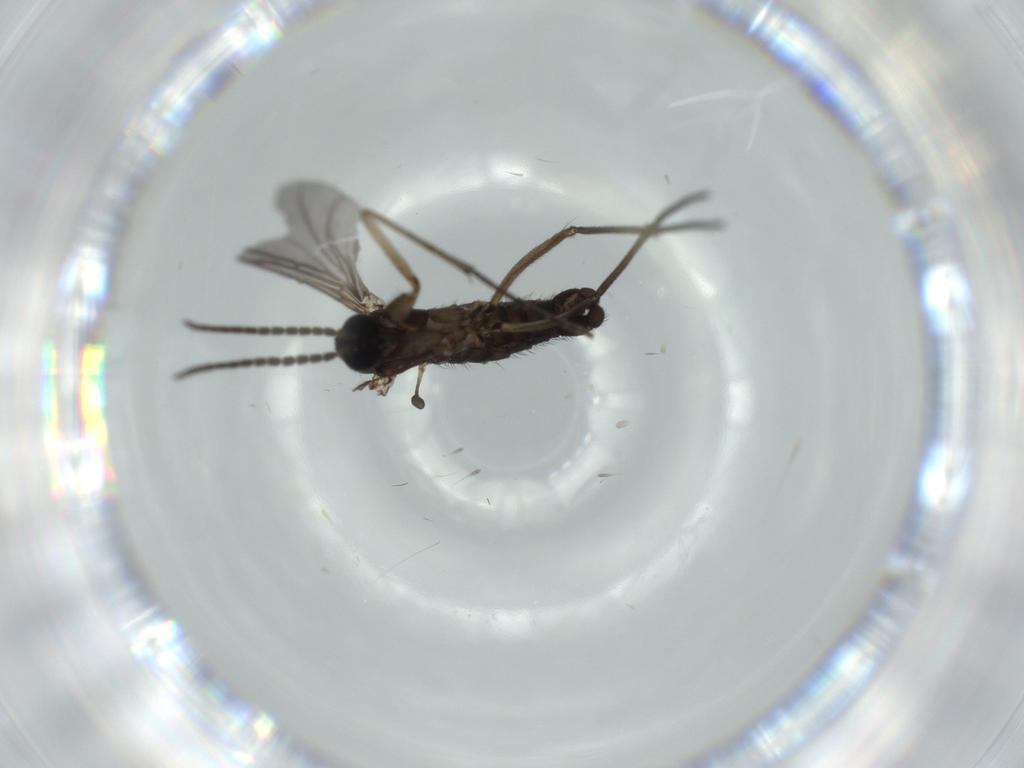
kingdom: Animalia
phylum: Arthropoda
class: Insecta
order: Diptera
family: Sciaridae
